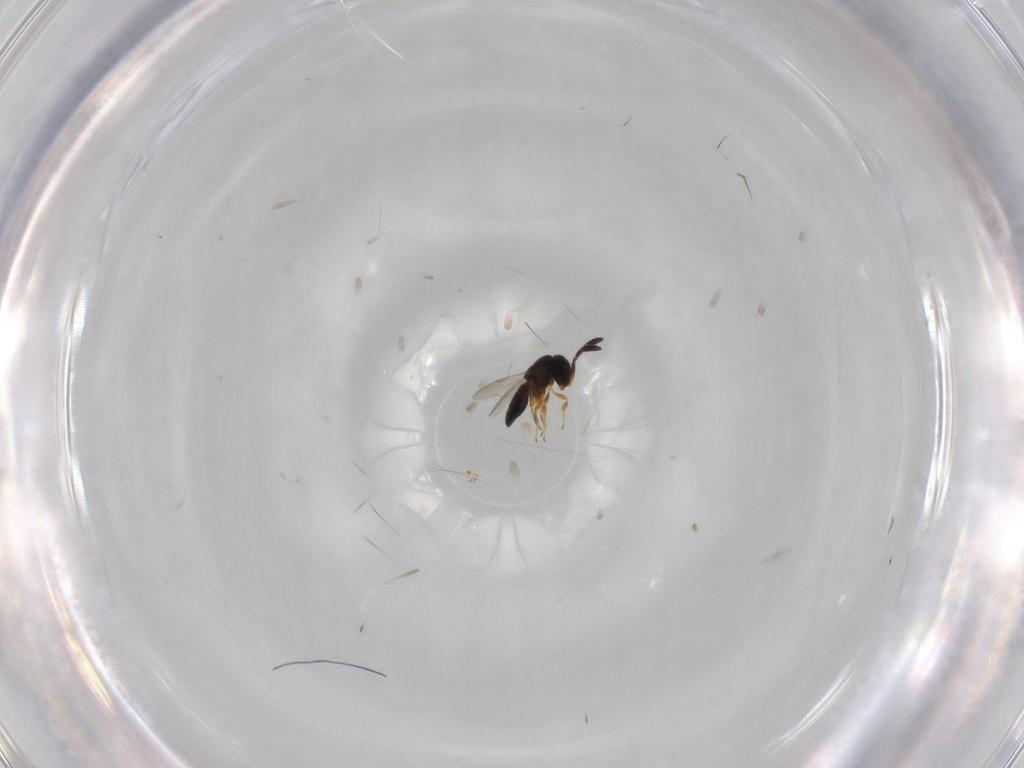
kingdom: Animalia
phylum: Arthropoda
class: Insecta
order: Hymenoptera
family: Scelionidae
